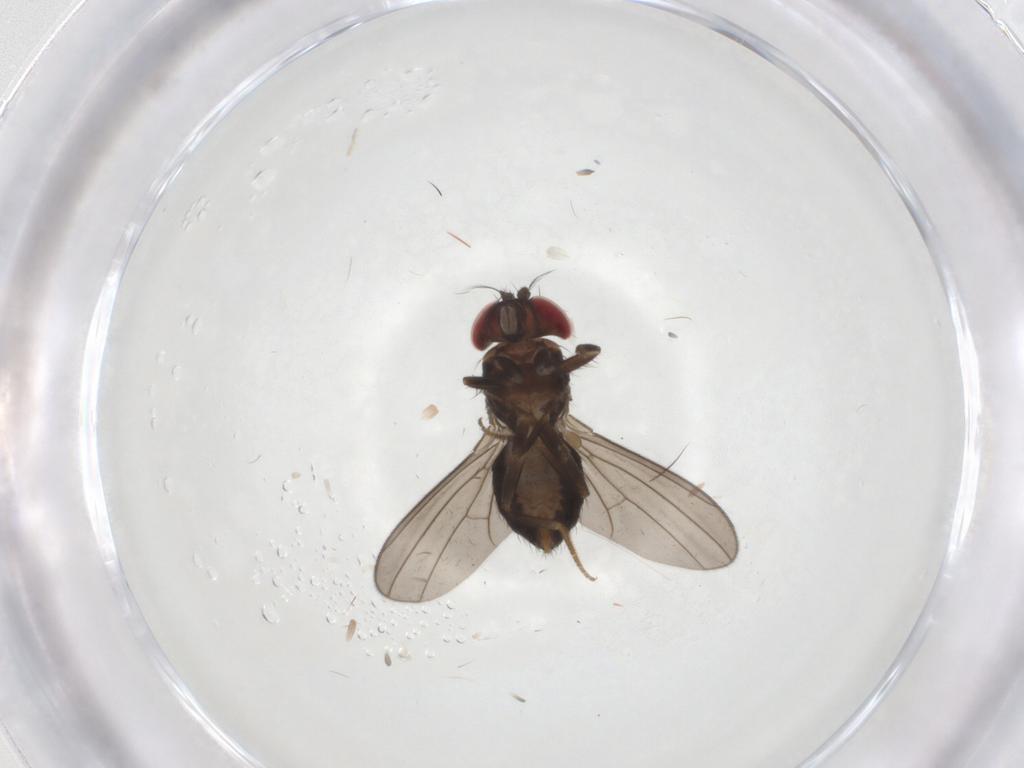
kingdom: Animalia
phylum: Arthropoda
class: Insecta
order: Diptera
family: Drosophilidae
